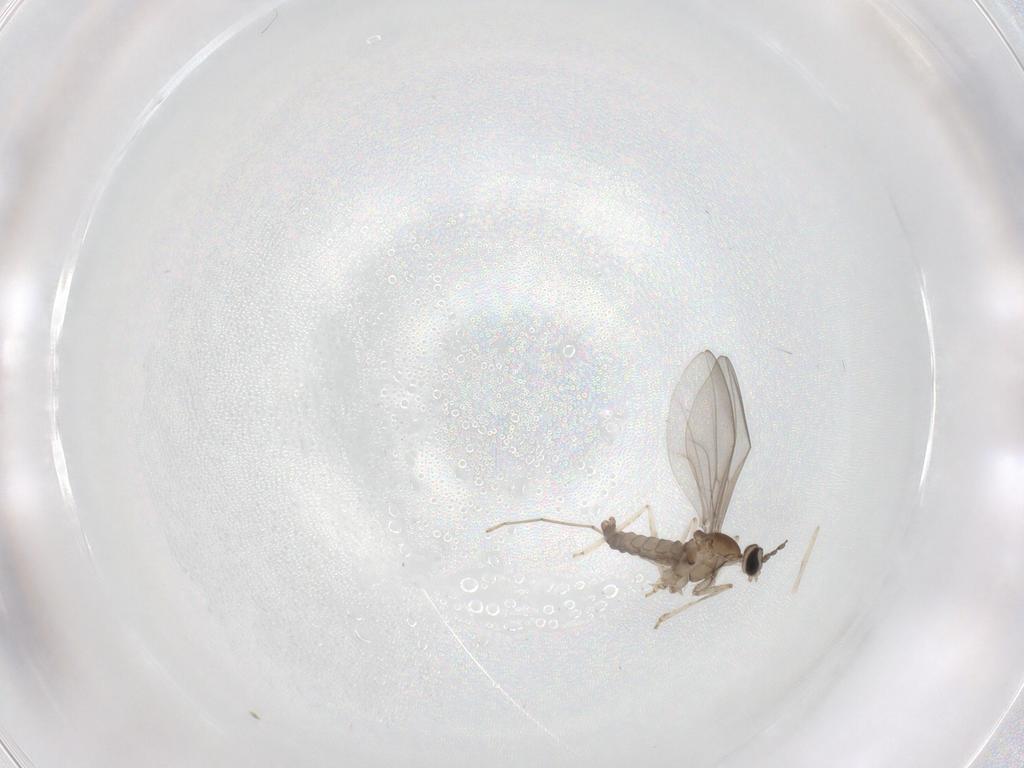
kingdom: Animalia
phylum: Arthropoda
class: Insecta
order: Diptera
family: Cecidomyiidae
